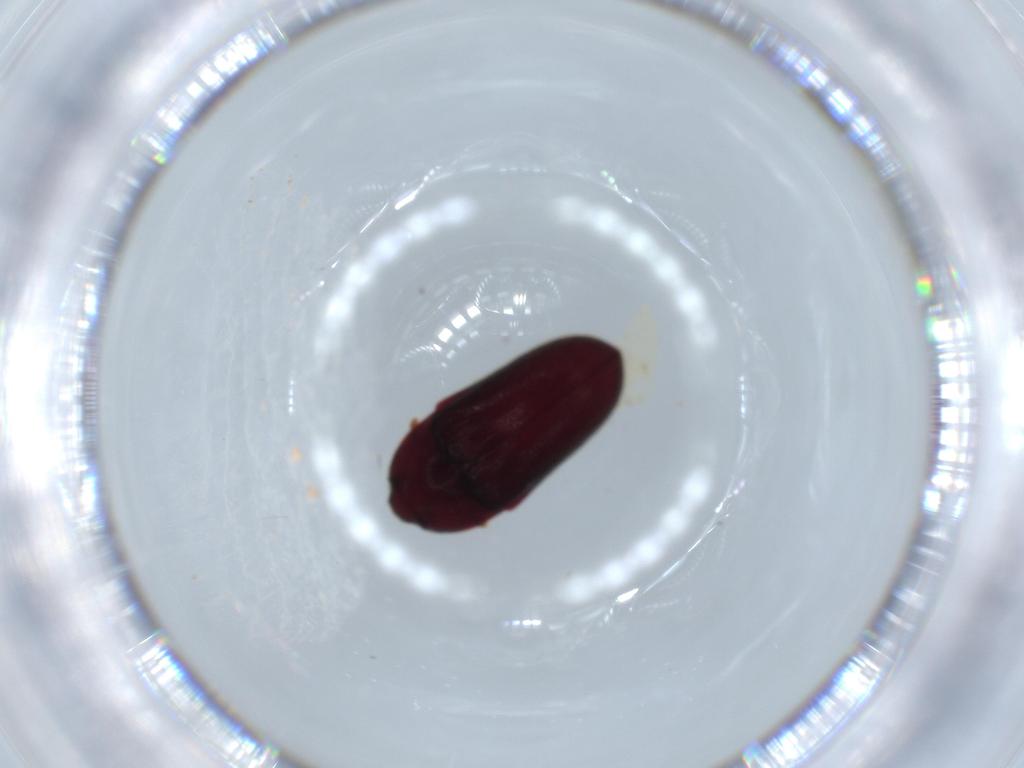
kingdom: Animalia
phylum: Arthropoda
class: Insecta
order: Coleoptera
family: Throscidae
